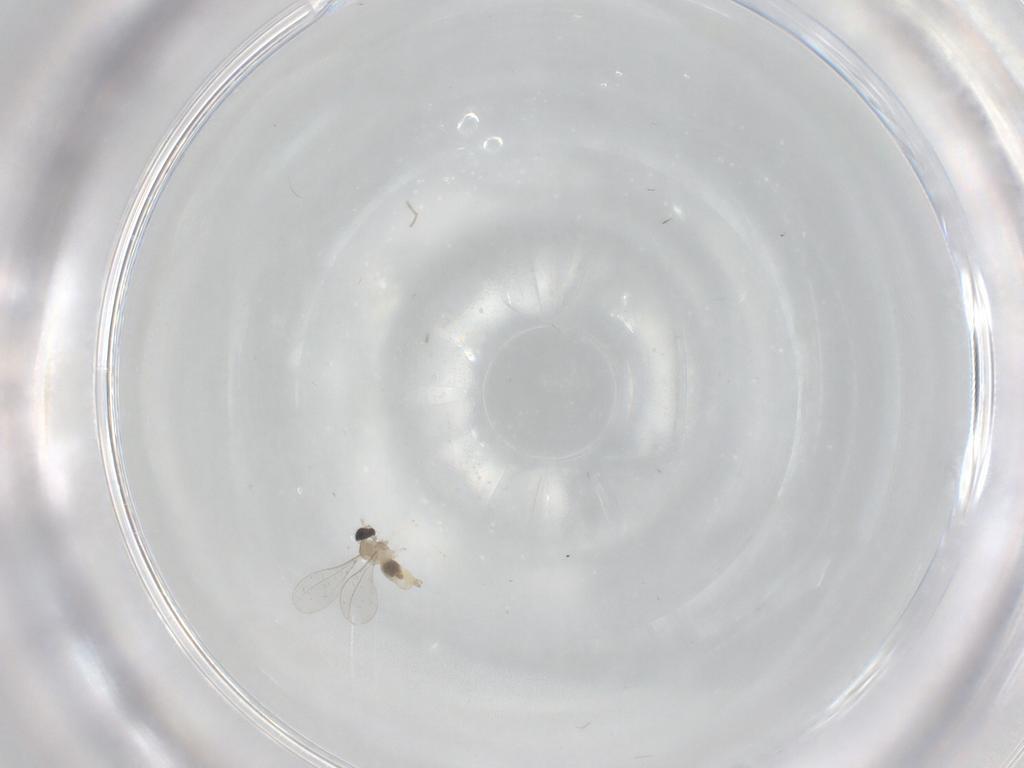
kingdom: Animalia
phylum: Arthropoda
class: Insecta
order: Diptera
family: Cecidomyiidae
